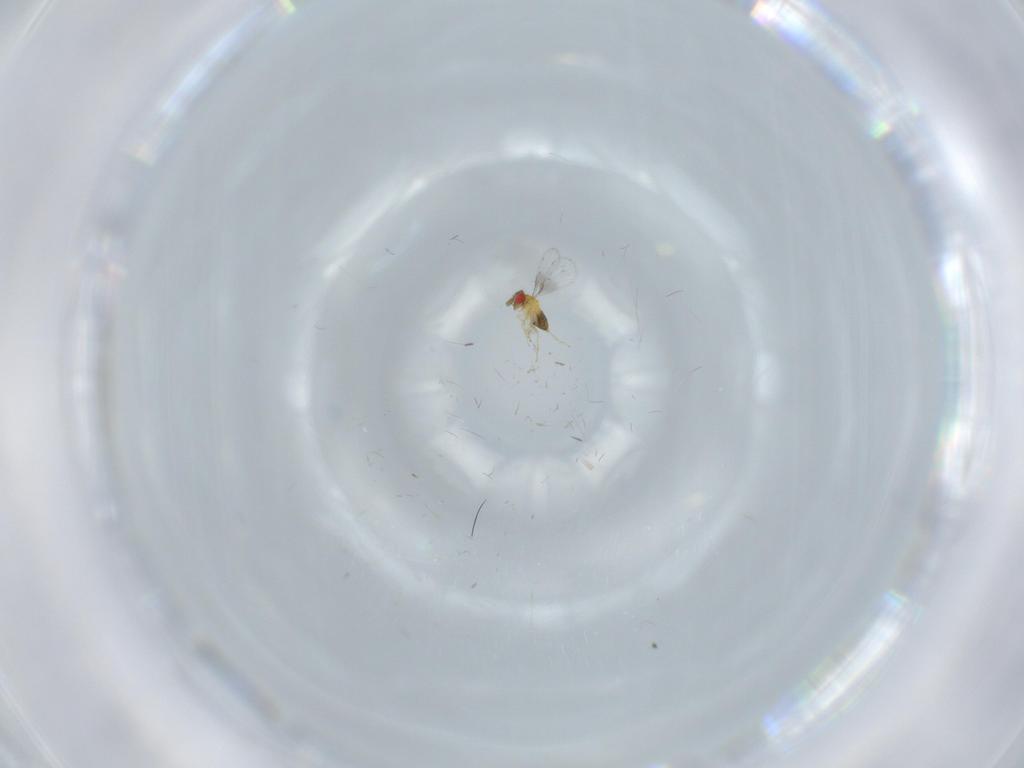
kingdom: Animalia
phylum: Arthropoda
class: Insecta
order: Hymenoptera
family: Trichogrammatidae
